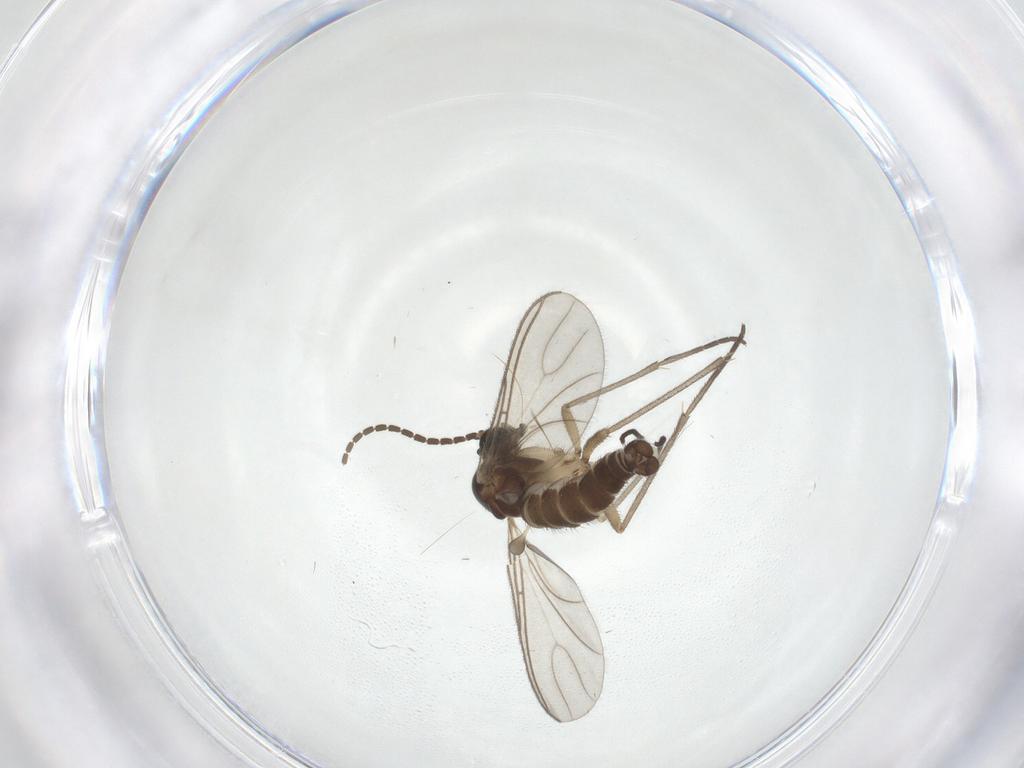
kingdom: Animalia
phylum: Arthropoda
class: Insecta
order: Diptera
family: Sciaridae
